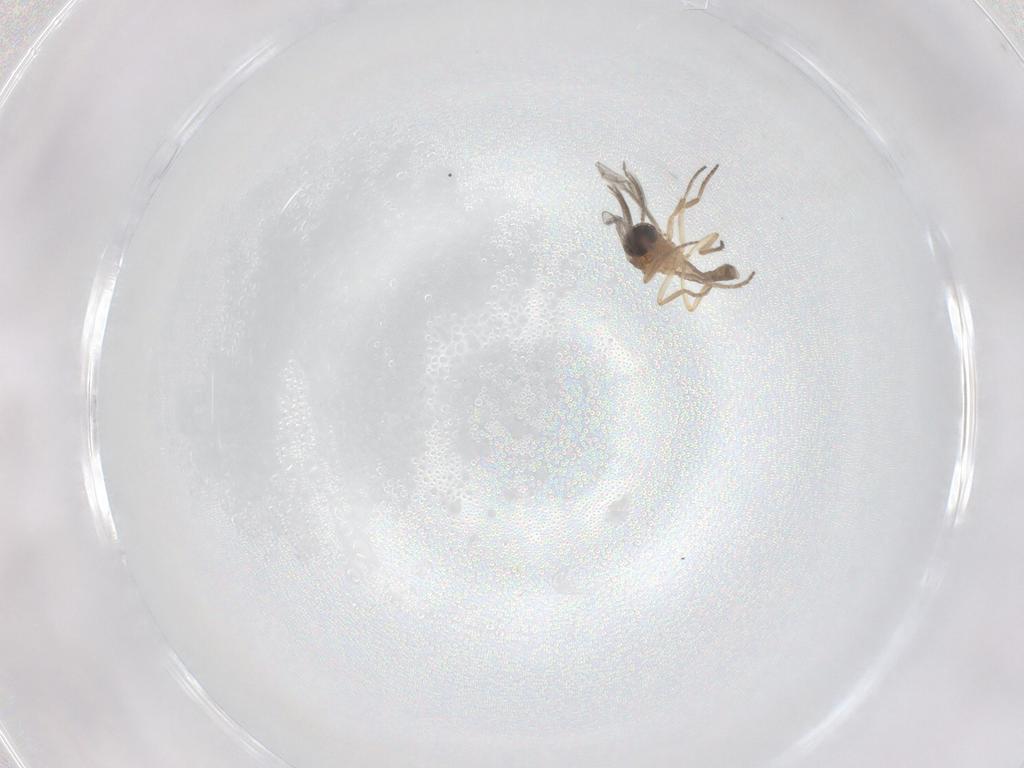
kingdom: Animalia
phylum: Arthropoda
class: Insecta
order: Diptera
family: Ceratopogonidae
